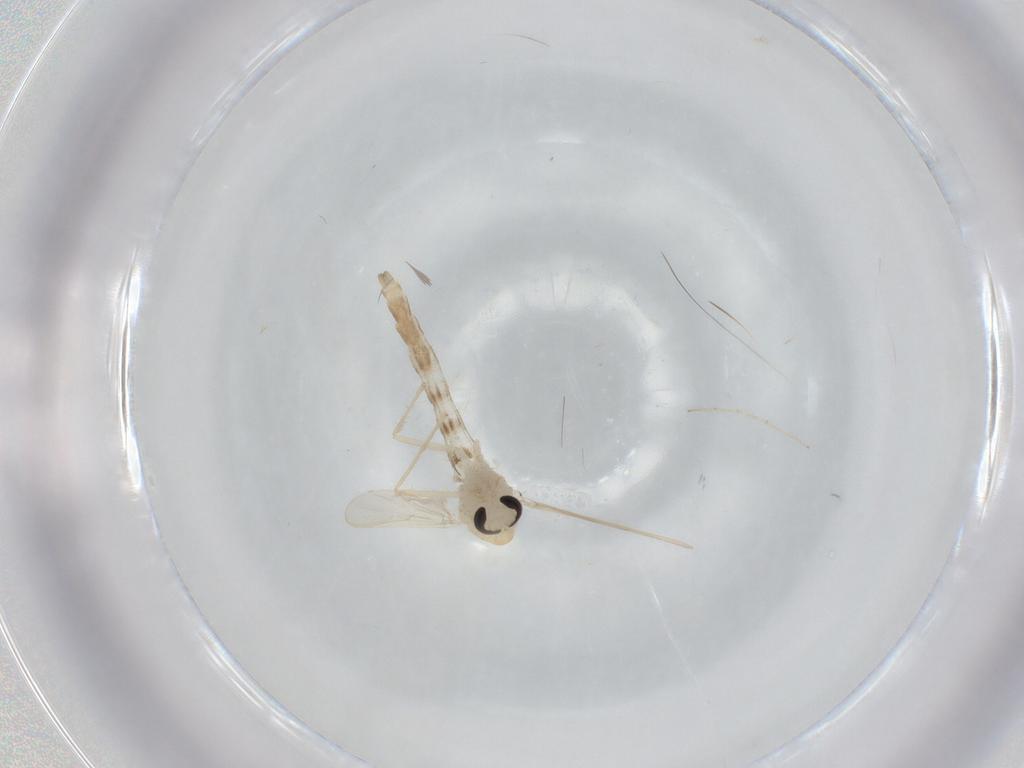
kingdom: Animalia
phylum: Arthropoda
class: Insecta
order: Diptera
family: Chironomidae
